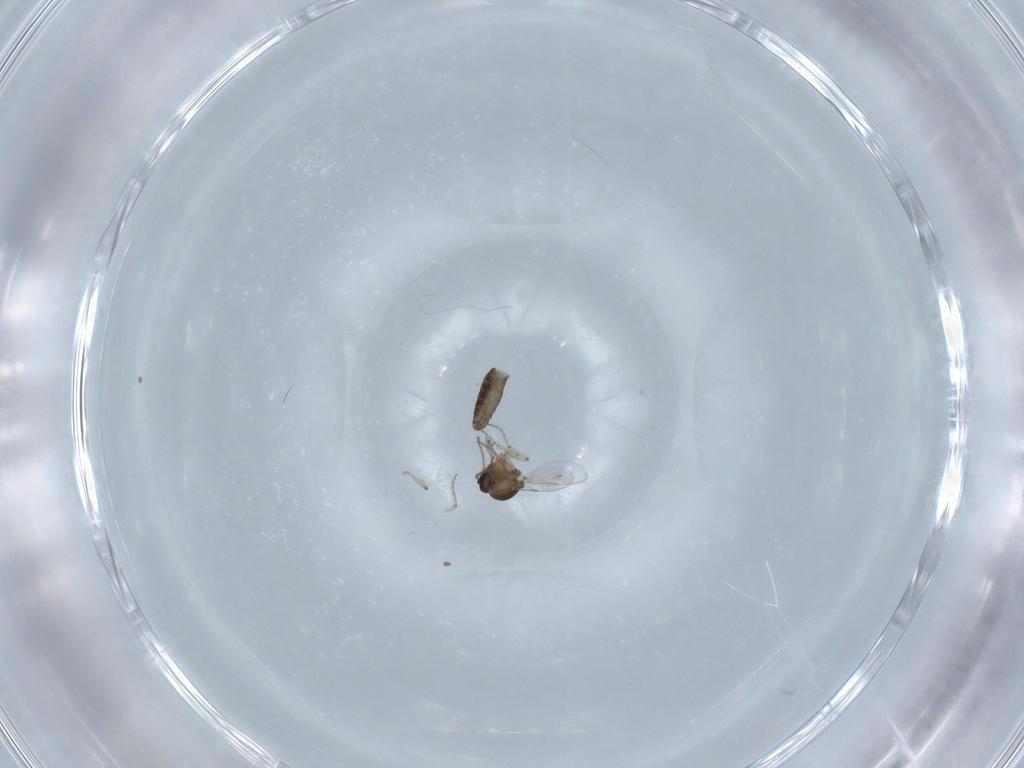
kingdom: Animalia
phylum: Arthropoda
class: Insecta
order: Diptera
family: Ceratopogonidae
